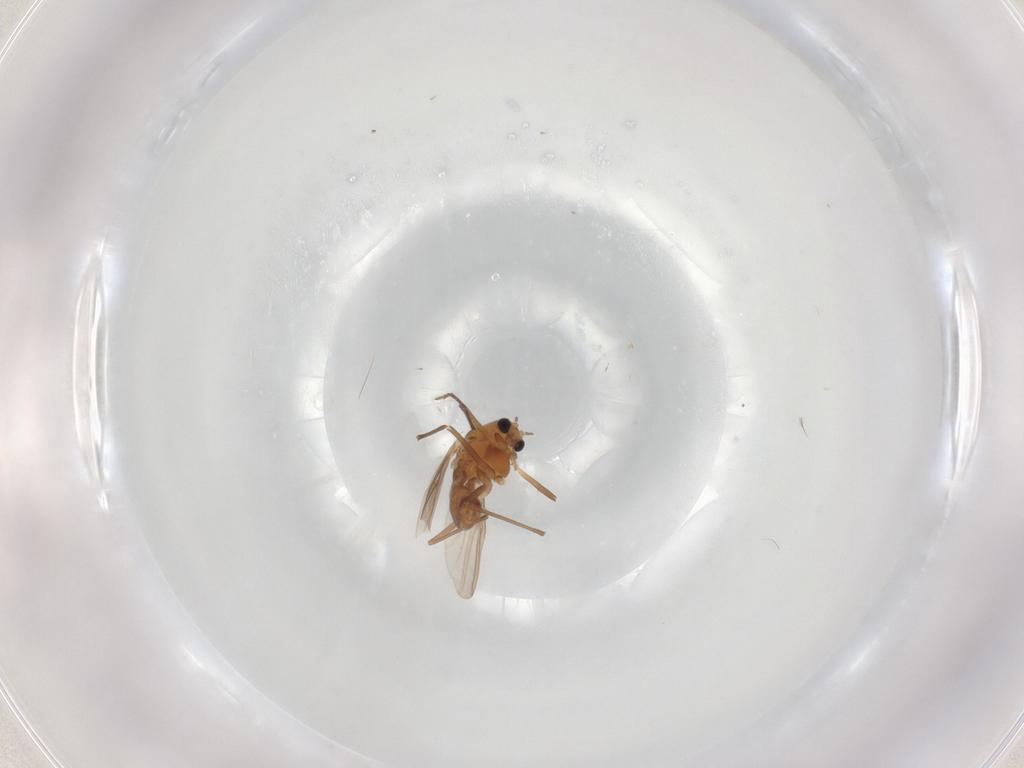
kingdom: Animalia
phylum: Arthropoda
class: Insecta
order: Diptera
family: Chironomidae
